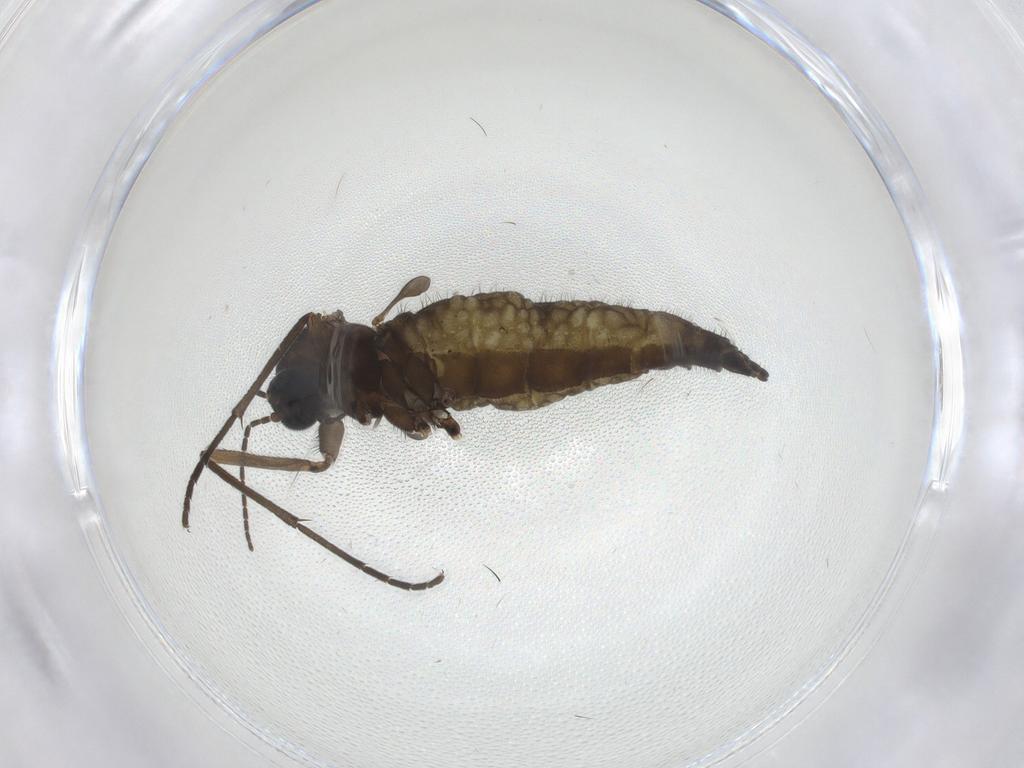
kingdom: Animalia
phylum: Arthropoda
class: Insecta
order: Diptera
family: Sciaridae
